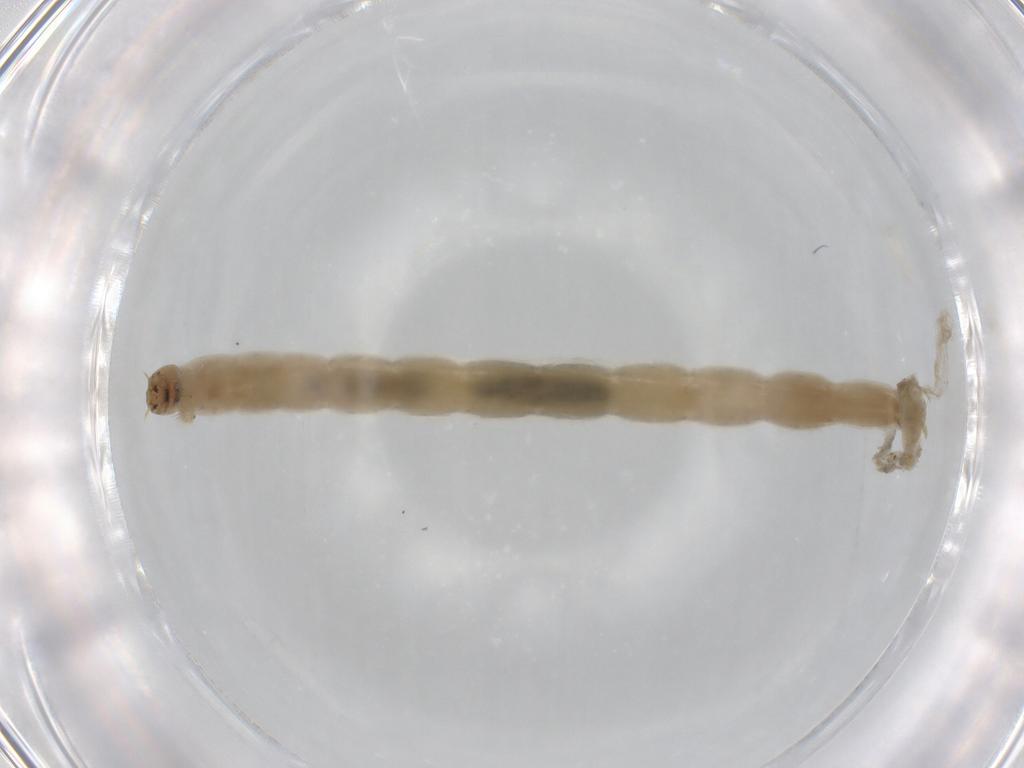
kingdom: Animalia
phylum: Arthropoda
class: Insecta
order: Diptera
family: Chironomidae
